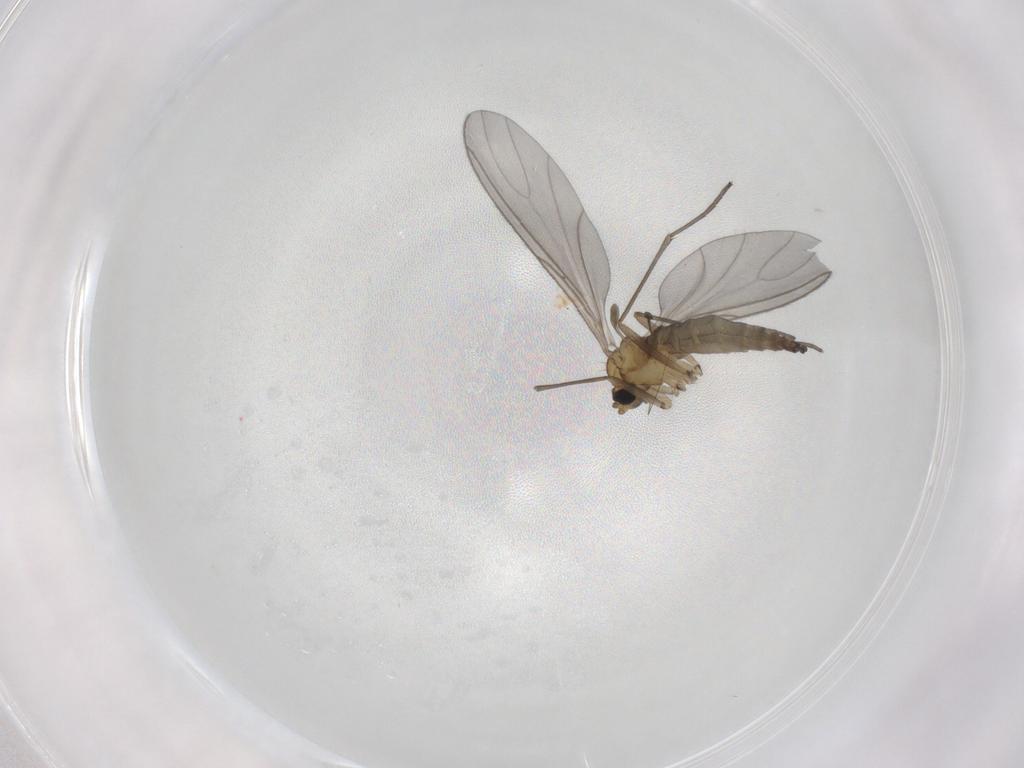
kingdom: Animalia
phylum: Arthropoda
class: Insecta
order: Diptera
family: Sciaridae
